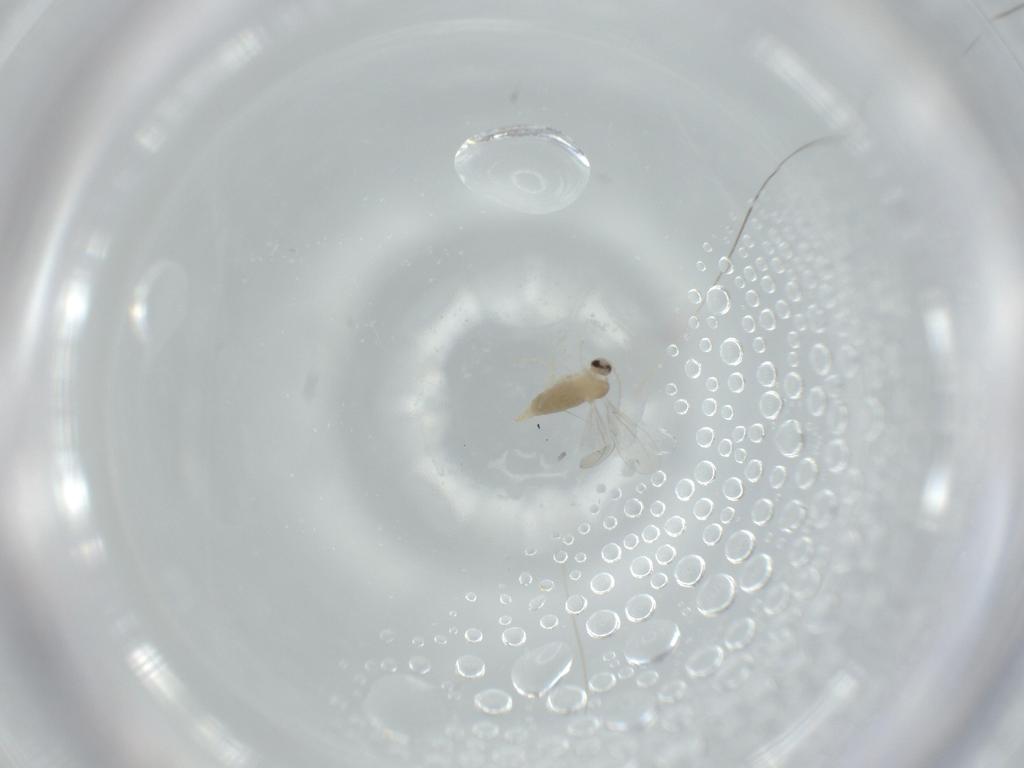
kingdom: Animalia
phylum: Arthropoda
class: Insecta
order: Diptera
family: Cecidomyiidae
